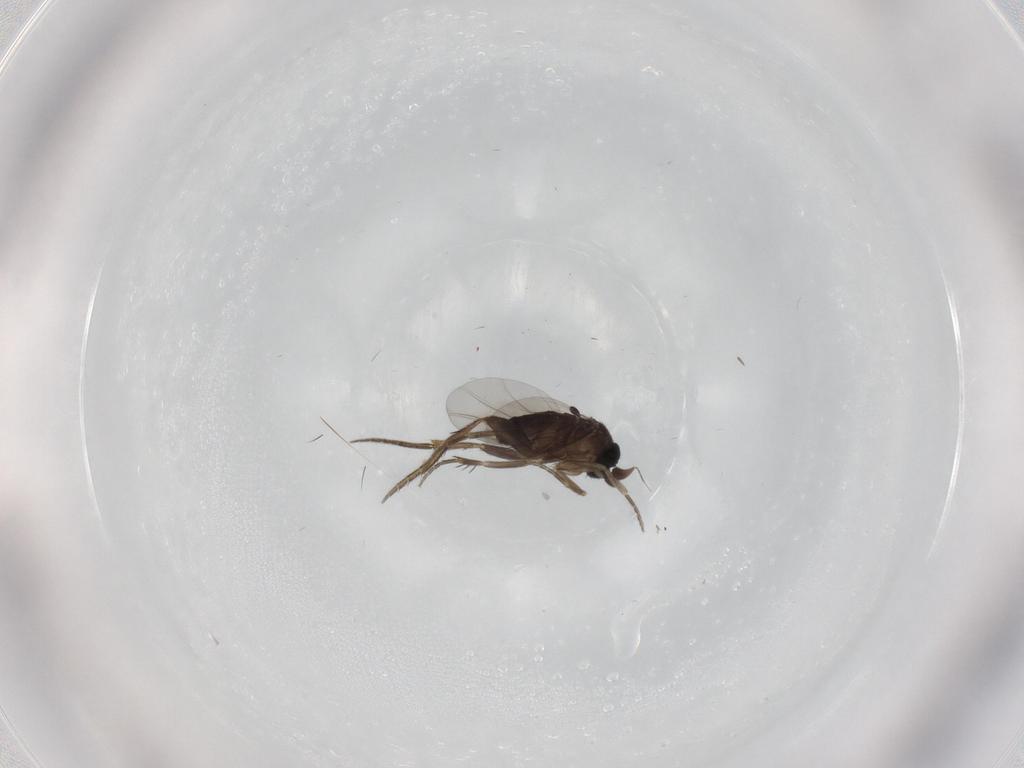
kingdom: Animalia
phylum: Arthropoda
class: Insecta
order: Diptera
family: Phoridae
